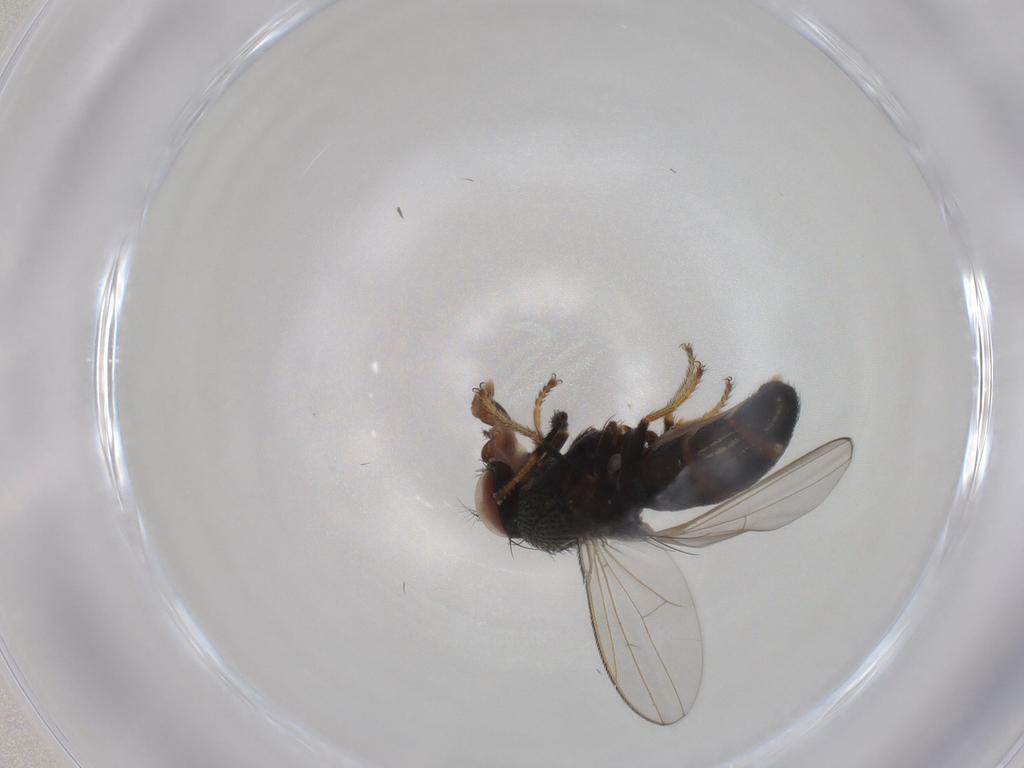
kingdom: Animalia
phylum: Arthropoda
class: Insecta
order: Diptera
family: Ephydridae
